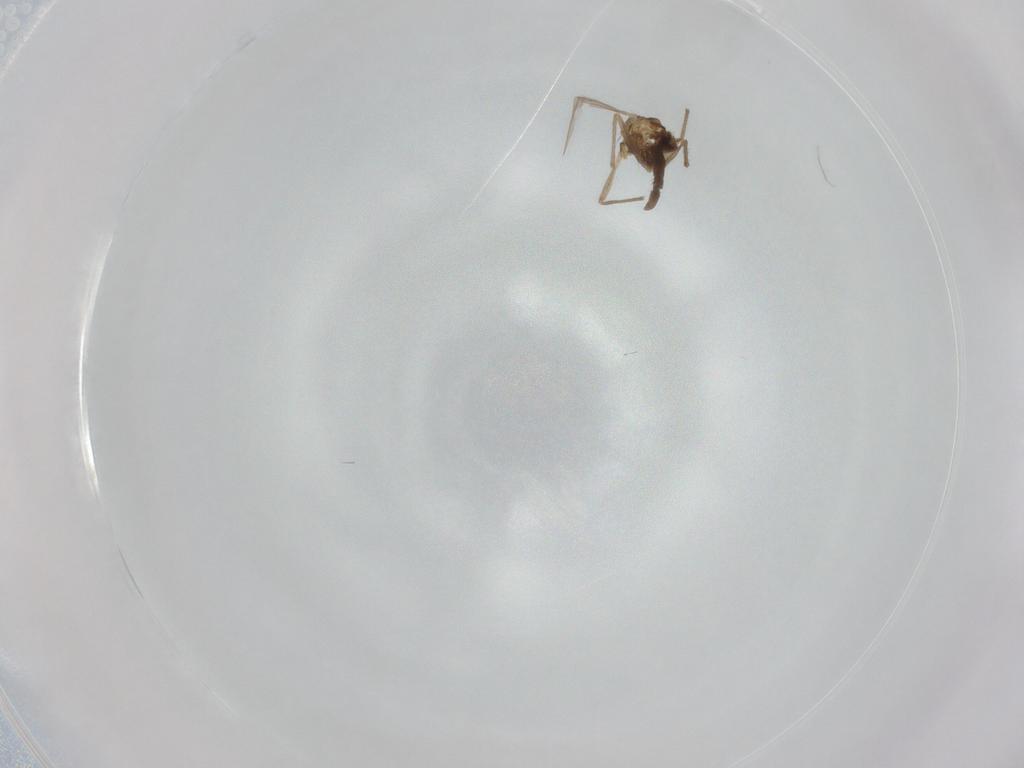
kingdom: Animalia
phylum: Arthropoda
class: Insecta
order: Diptera
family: Chironomidae
